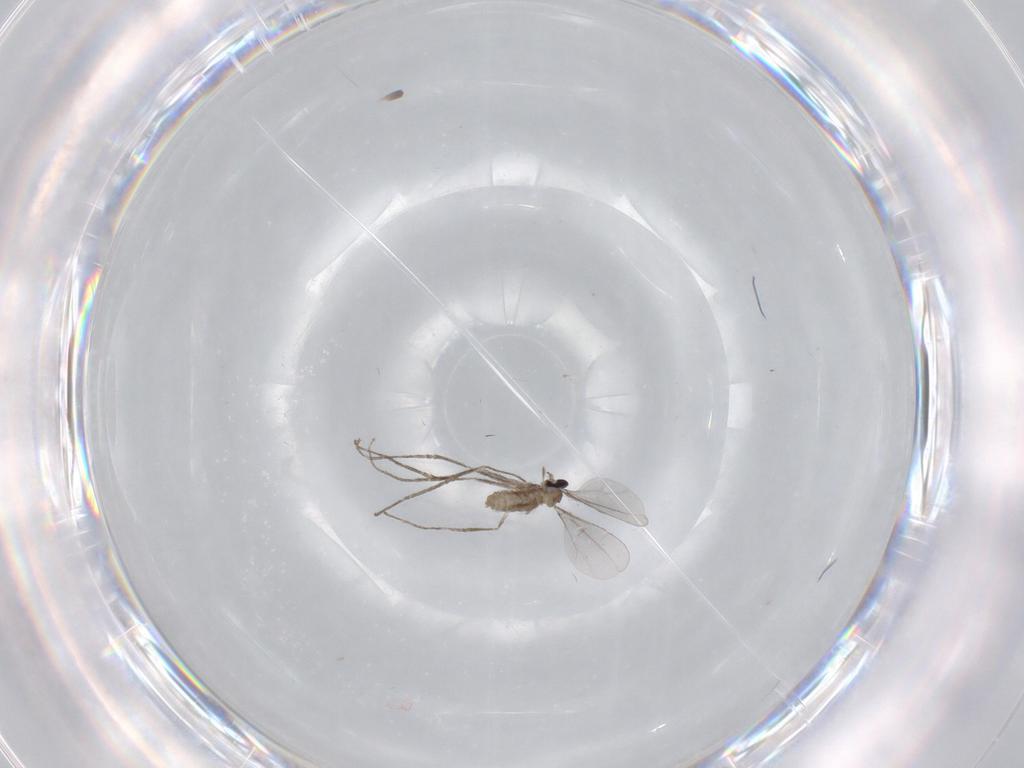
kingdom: Animalia
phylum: Arthropoda
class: Insecta
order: Diptera
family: Cecidomyiidae
